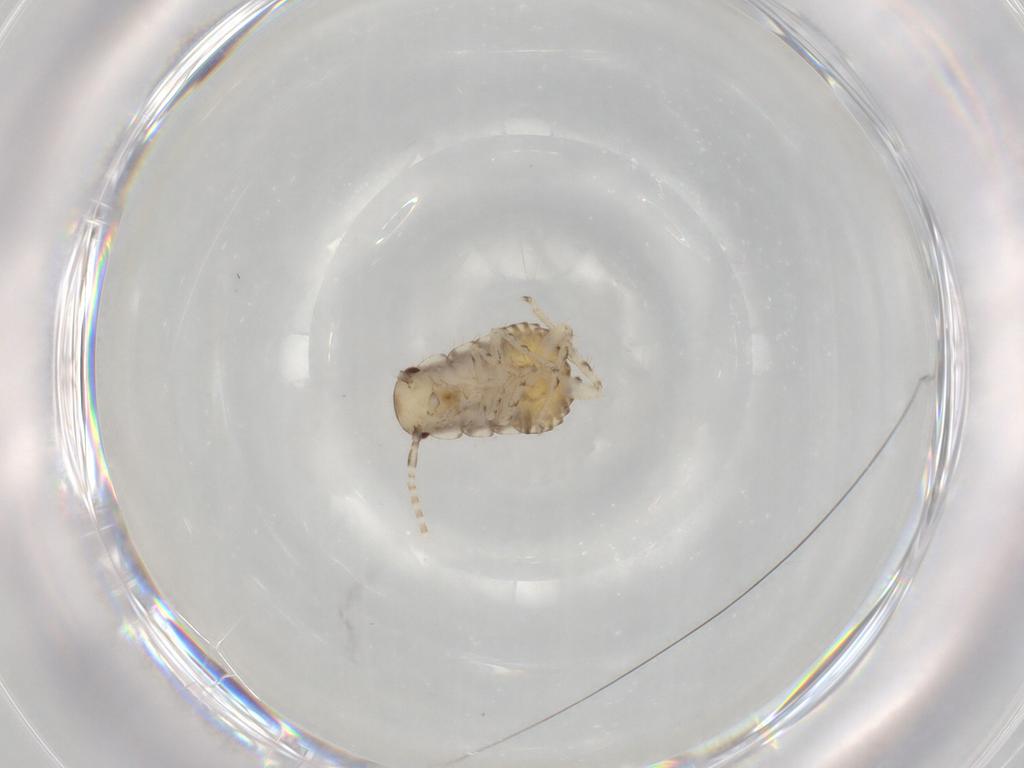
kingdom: Animalia
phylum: Arthropoda
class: Insecta
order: Blattodea
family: Ectobiidae
